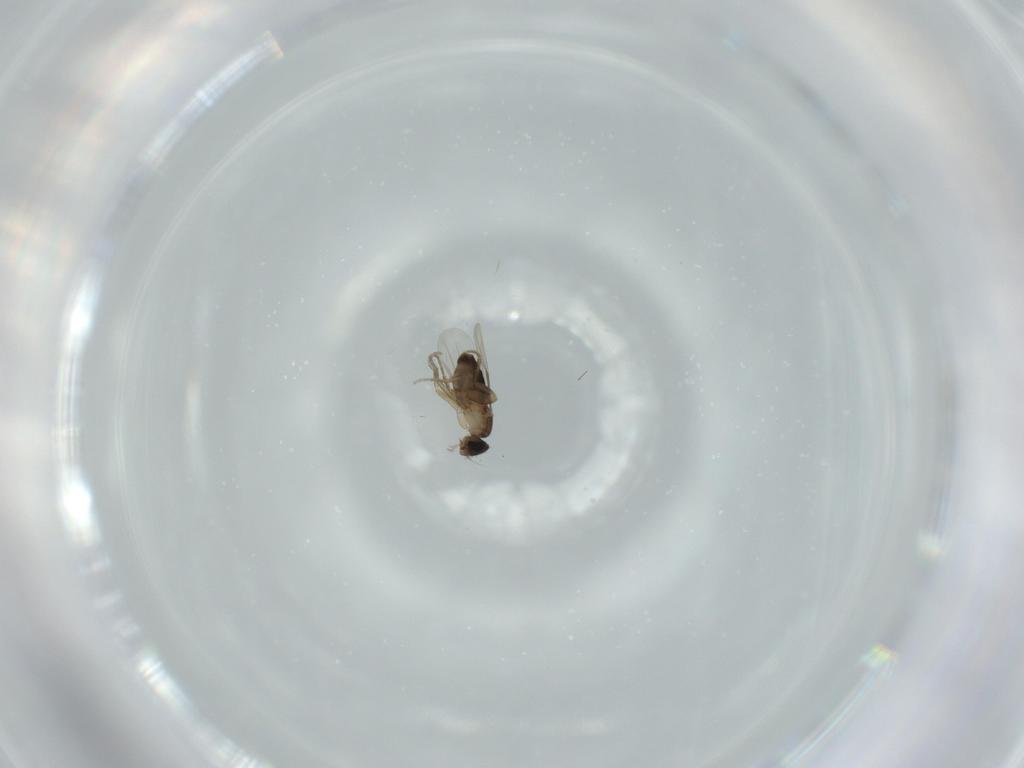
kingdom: Animalia
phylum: Arthropoda
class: Insecta
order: Diptera
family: Phoridae
